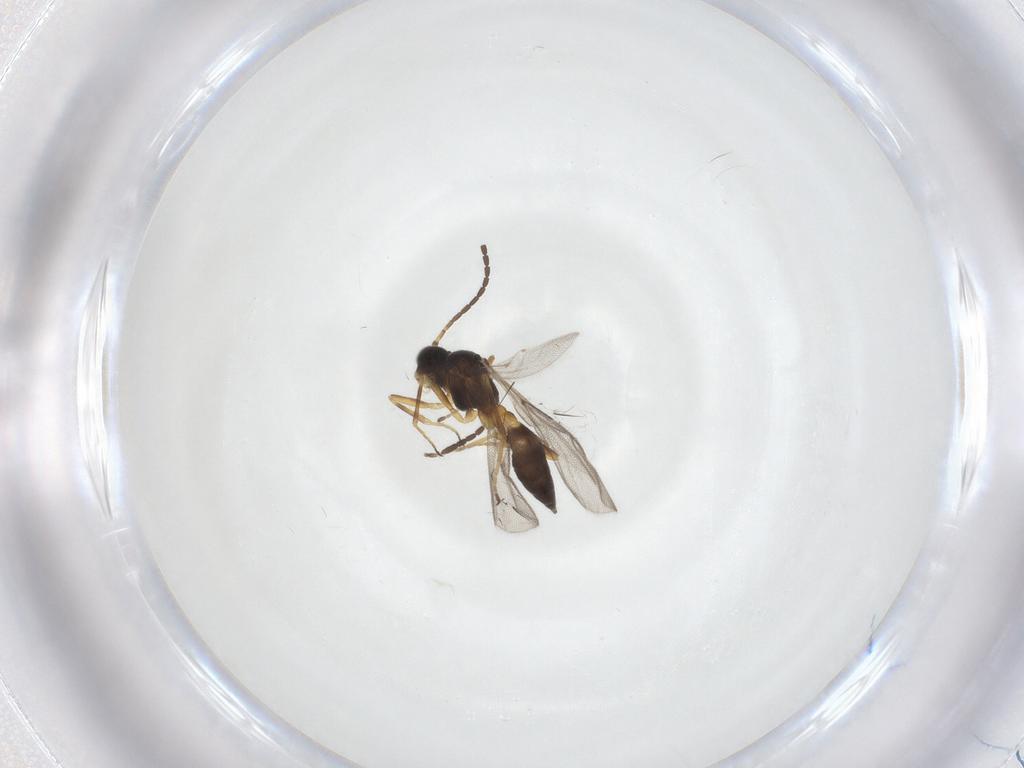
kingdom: Animalia
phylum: Arthropoda
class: Insecta
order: Hymenoptera
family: Braconidae
